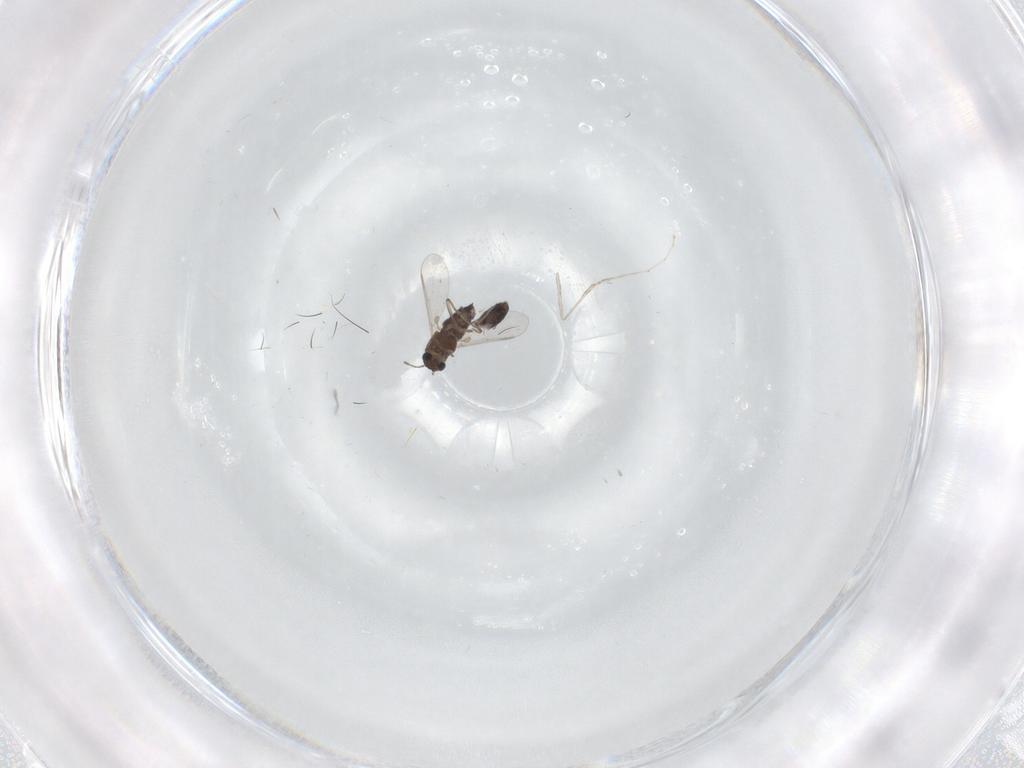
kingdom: Animalia
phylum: Arthropoda
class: Insecta
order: Diptera
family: Chironomidae
